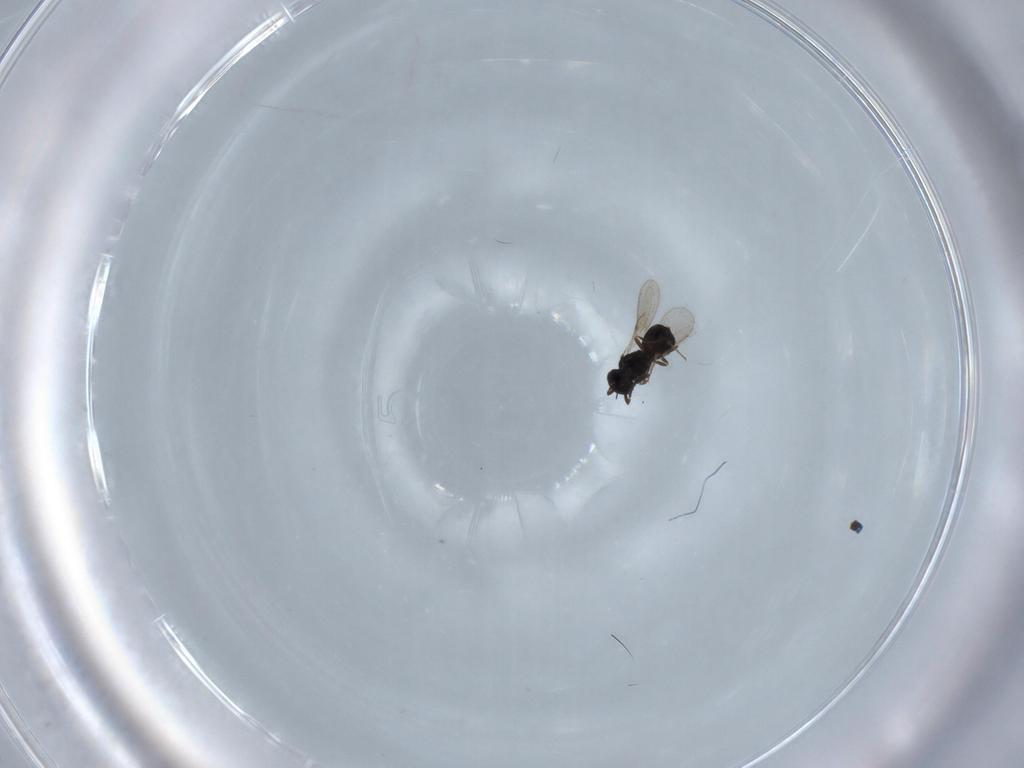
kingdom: Animalia
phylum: Arthropoda
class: Insecta
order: Hymenoptera
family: Scelionidae
